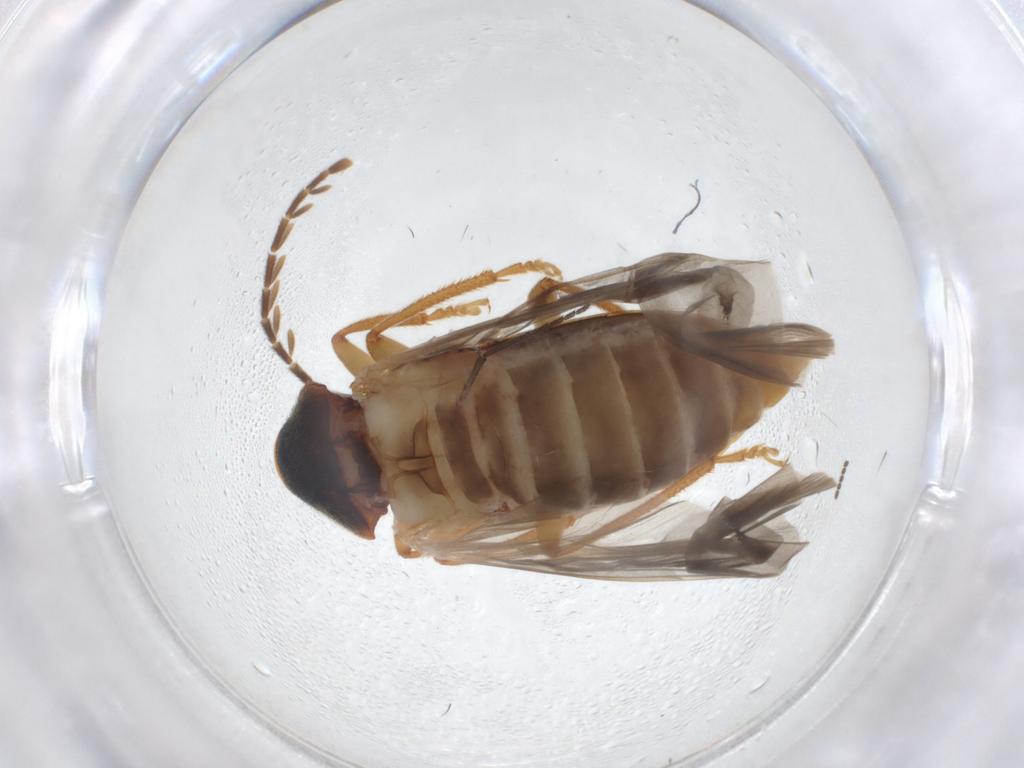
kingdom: Animalia
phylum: Arthropoda
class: Insecta
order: Coleoptera
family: Ptilodactylidae
